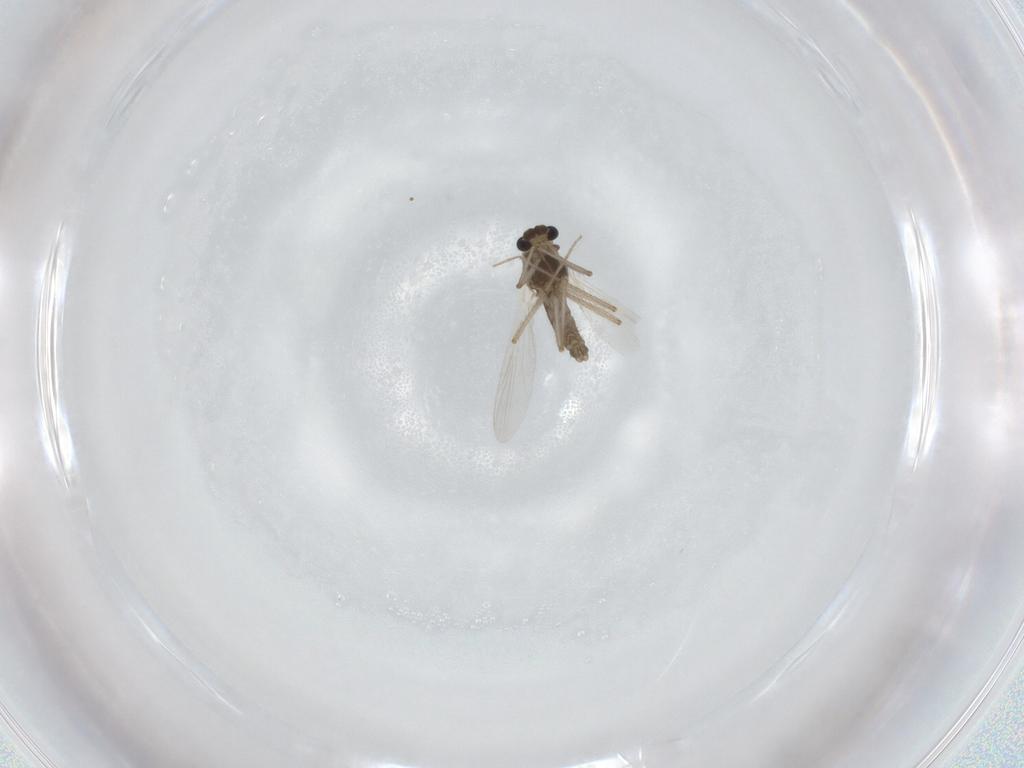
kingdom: Animalia
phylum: Arthropoda
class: Insecta
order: Diptera
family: Chironomidae
